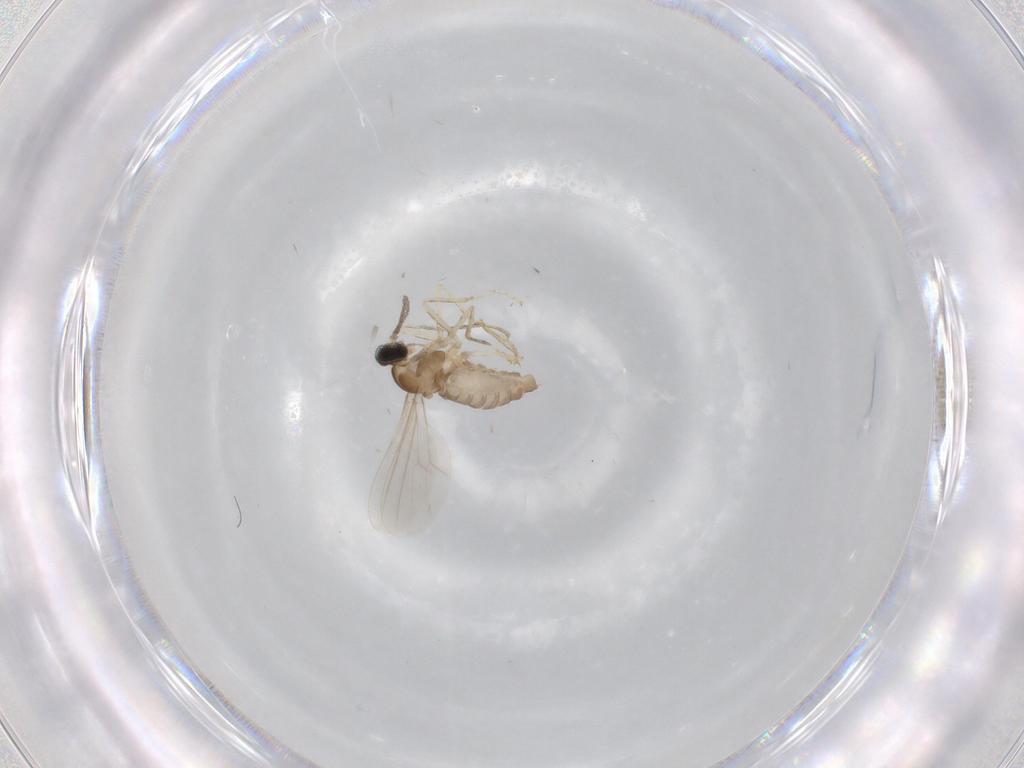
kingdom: Animalia
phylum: Arthropoda
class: Insecta
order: Diptera
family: Cecidomyiidae
